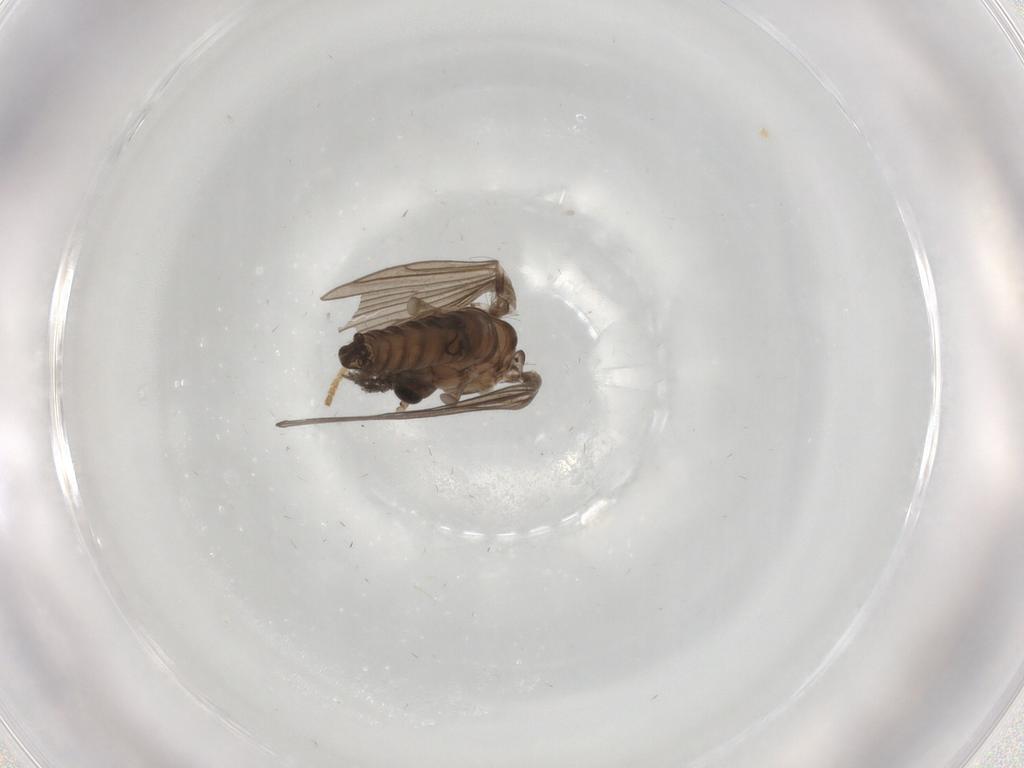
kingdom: Animalia
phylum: Arthropoda
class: Insecta
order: Diptera
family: Psychodidae
